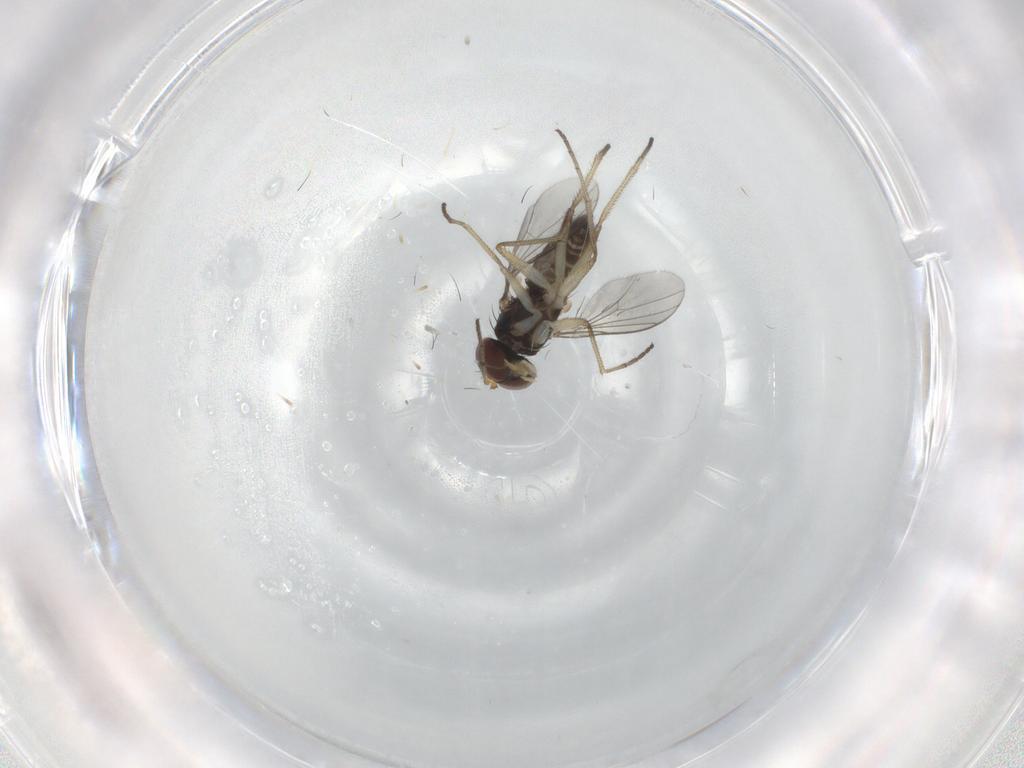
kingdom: Animalia
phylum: Arthropoda
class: Insecta
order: Diptera
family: Dolichopodidae
